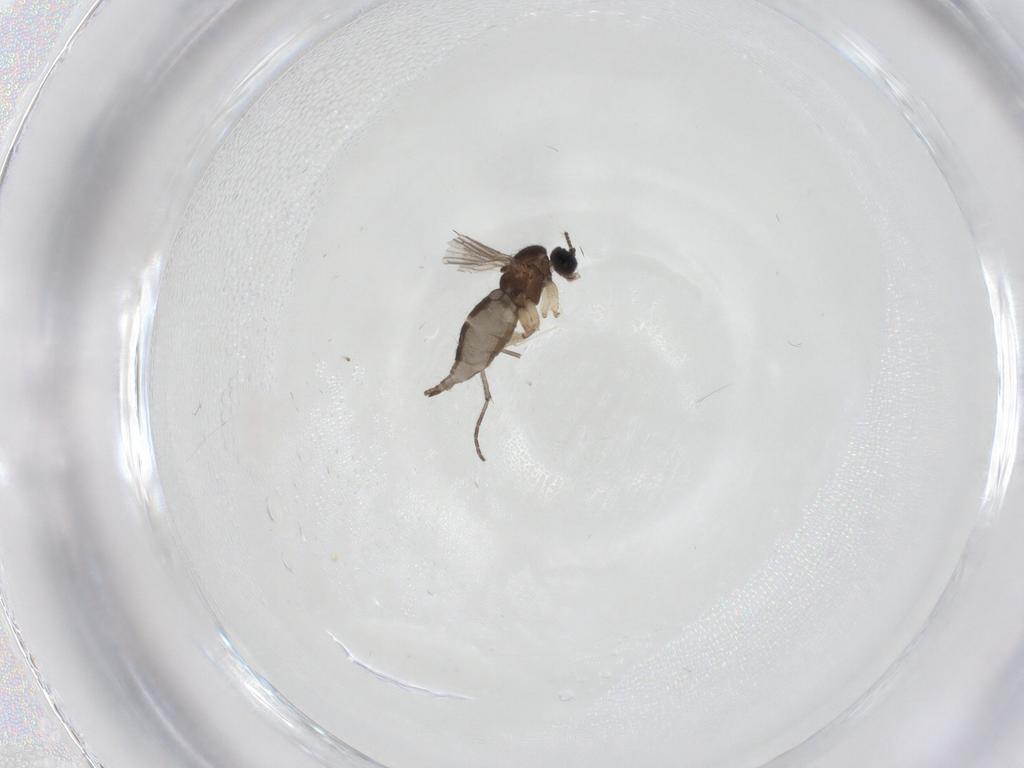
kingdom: Animalia
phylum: Arthropoda
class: Insecta
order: Diptera
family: Sciaridae
